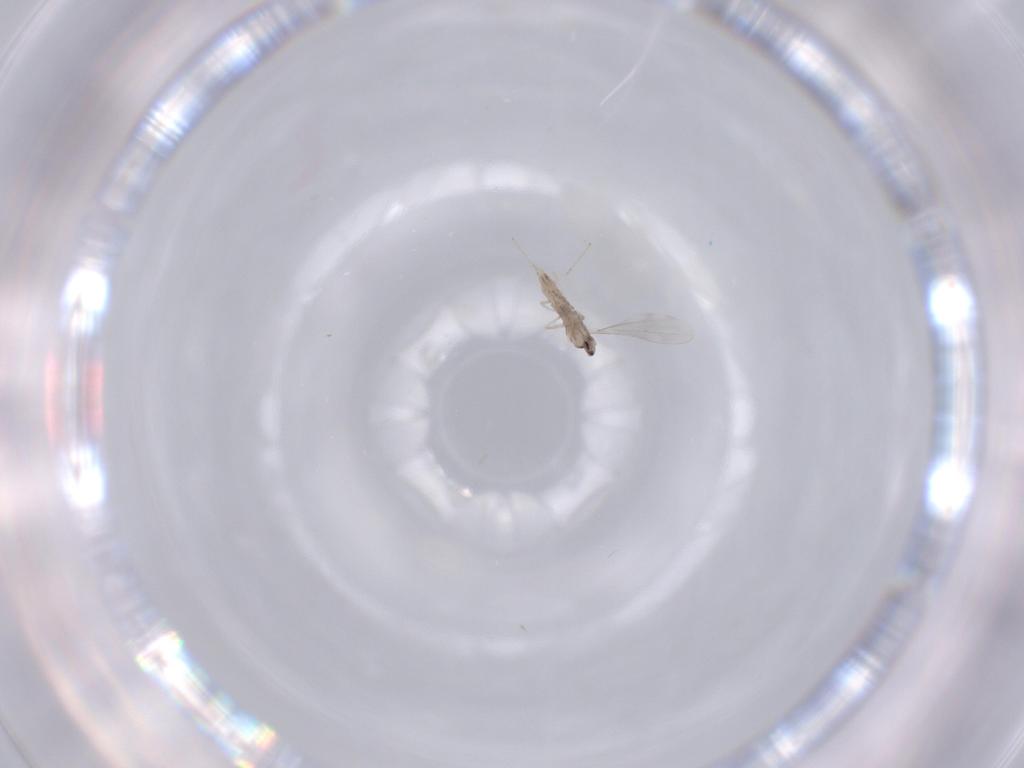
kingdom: Animalia
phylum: Arthropoda
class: Insecta
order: Diptera
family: Cecidomyiidae
